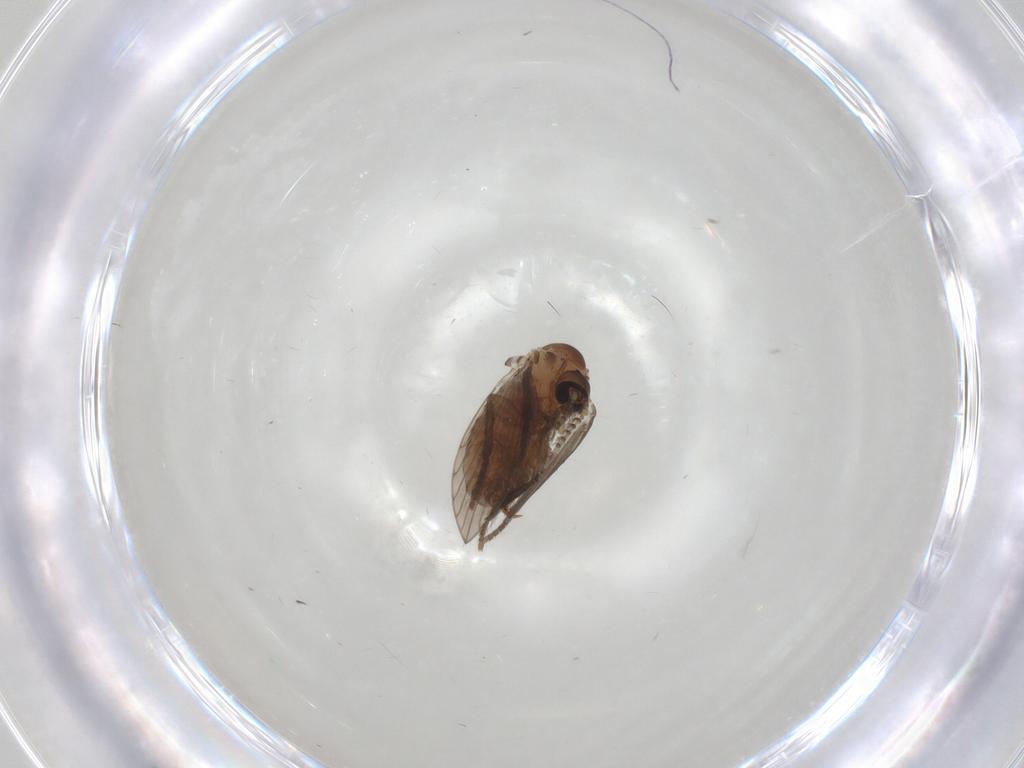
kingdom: Animalia
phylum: Arthropoda
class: Insecta
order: Diptera
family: Psychodidae
